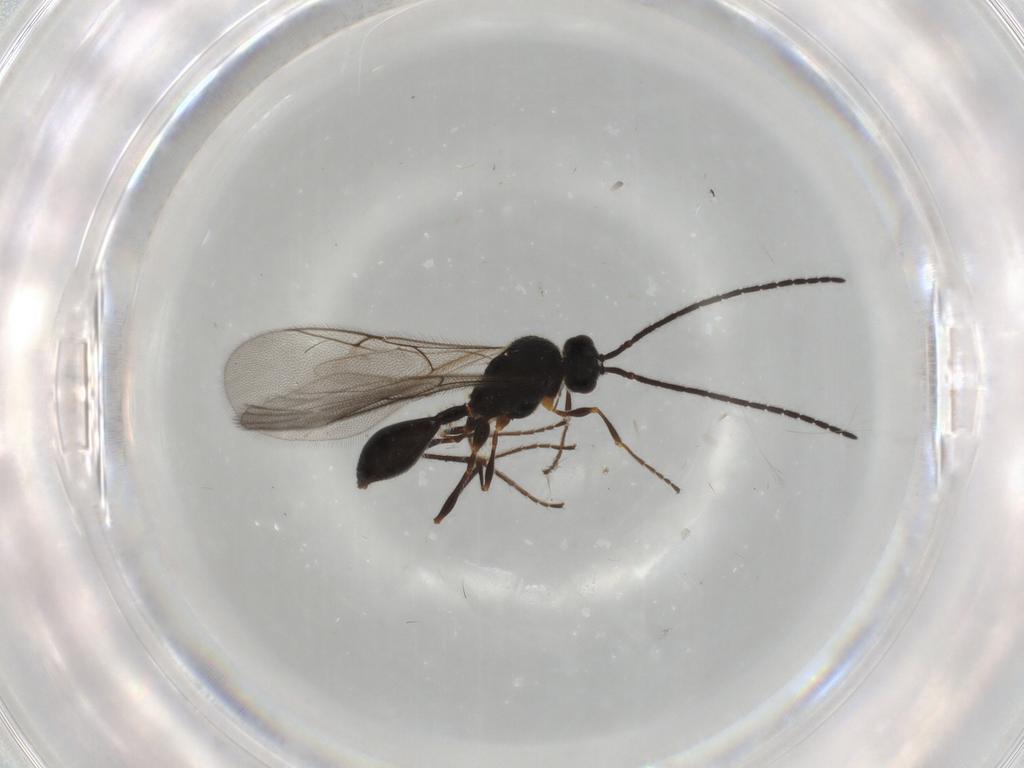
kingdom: Animalia
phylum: Arthropoda
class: Insecta
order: Hymenoptera
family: Diapriidae
